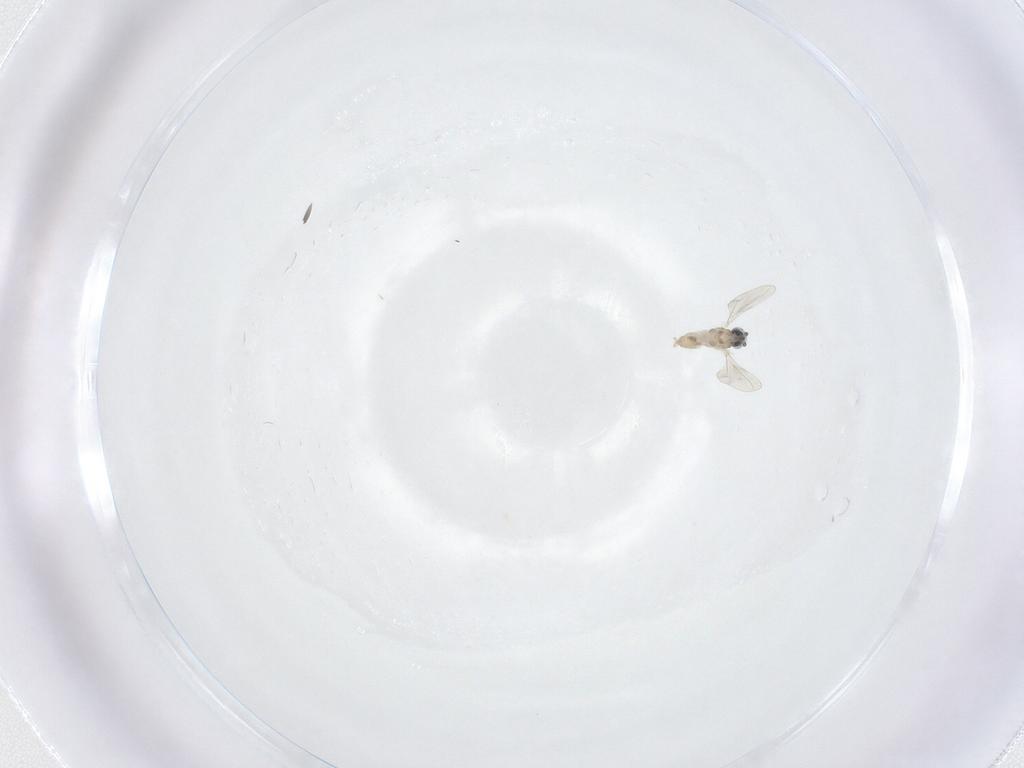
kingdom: Animalia
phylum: Arthropoda
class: Insecta
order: Diptera
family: Cecidomyiidae
